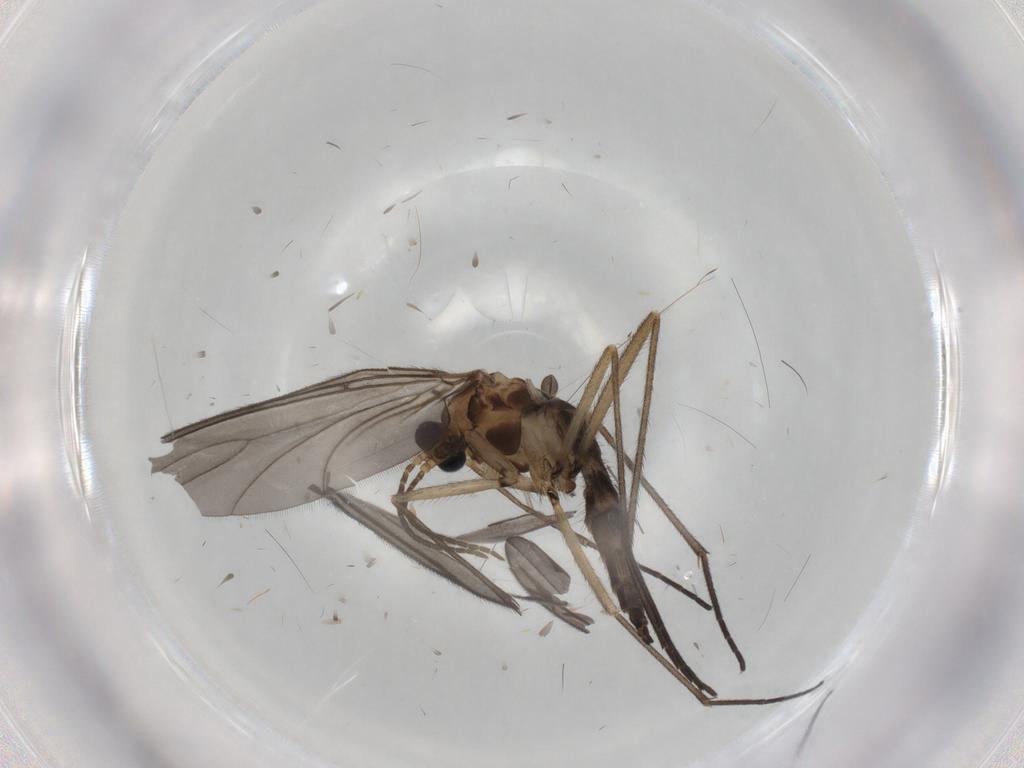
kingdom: Animalia
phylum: Arthropoda
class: Insecta
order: Diptera
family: Sciaridae
